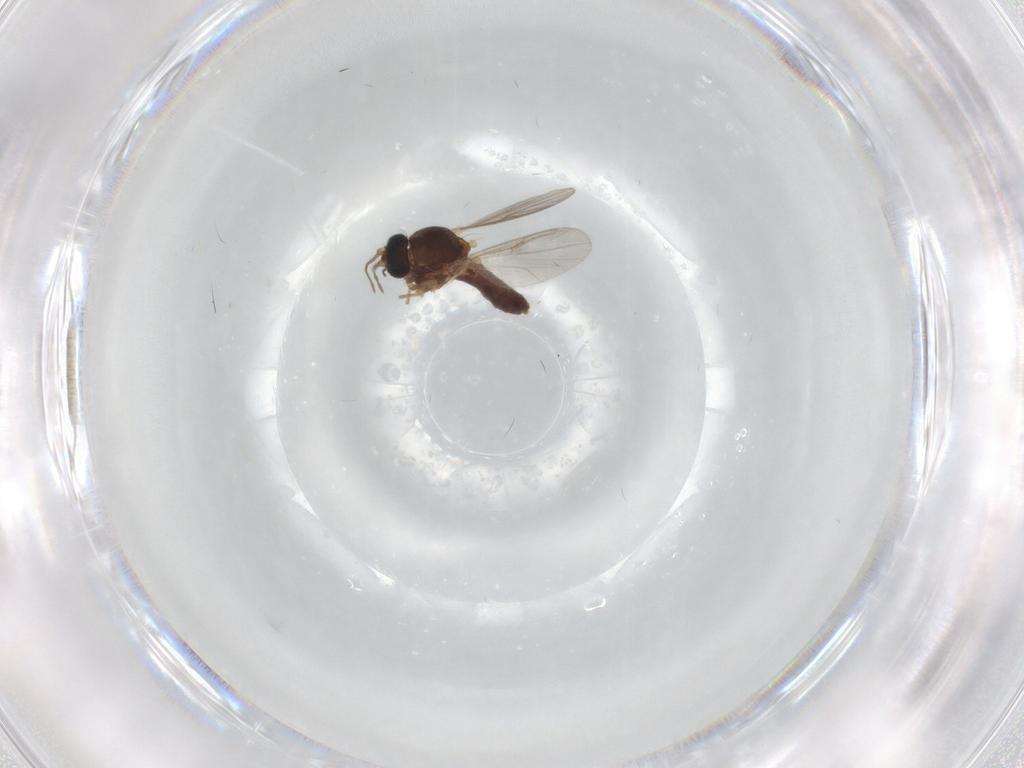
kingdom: Animalia
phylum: Arthropoda
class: Insecta
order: Diptera
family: Ceratopogonidae
